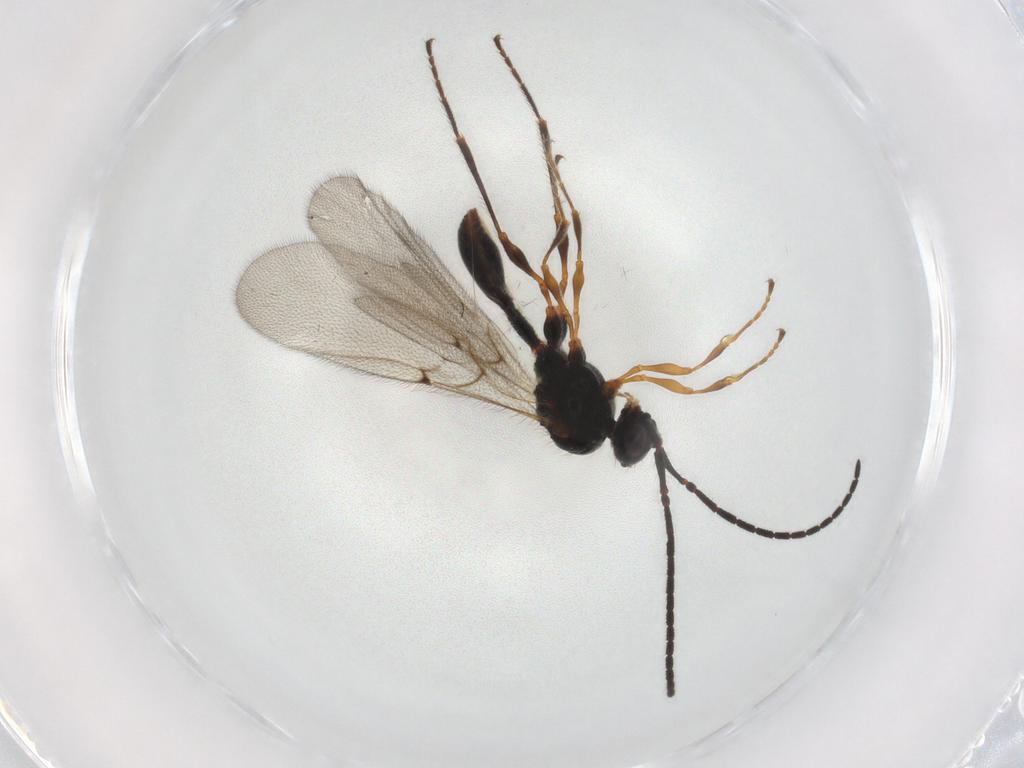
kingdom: Animalia
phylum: Arthropoda
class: Insecta
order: Hymenoptera
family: Diapriidae
